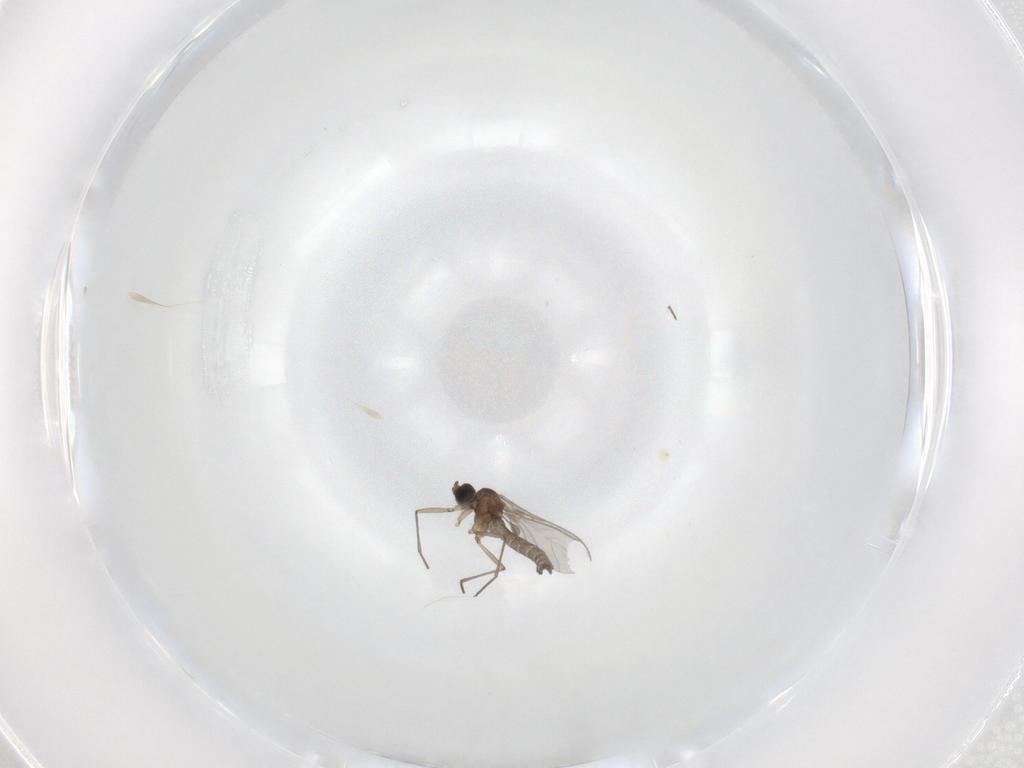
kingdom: Animalia
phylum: Arthropoda
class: Insecta
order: Diptera
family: Sciaridae
